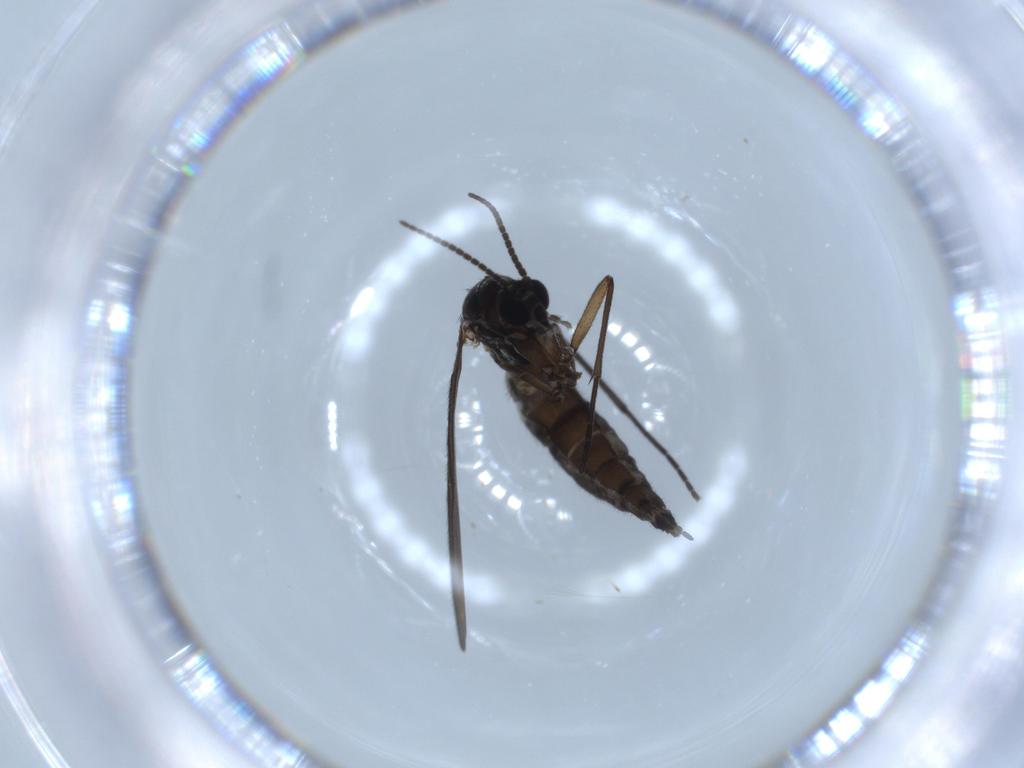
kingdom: Animalia
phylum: Arthropoda
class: Insecta
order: Diptera
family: Sciaridae
